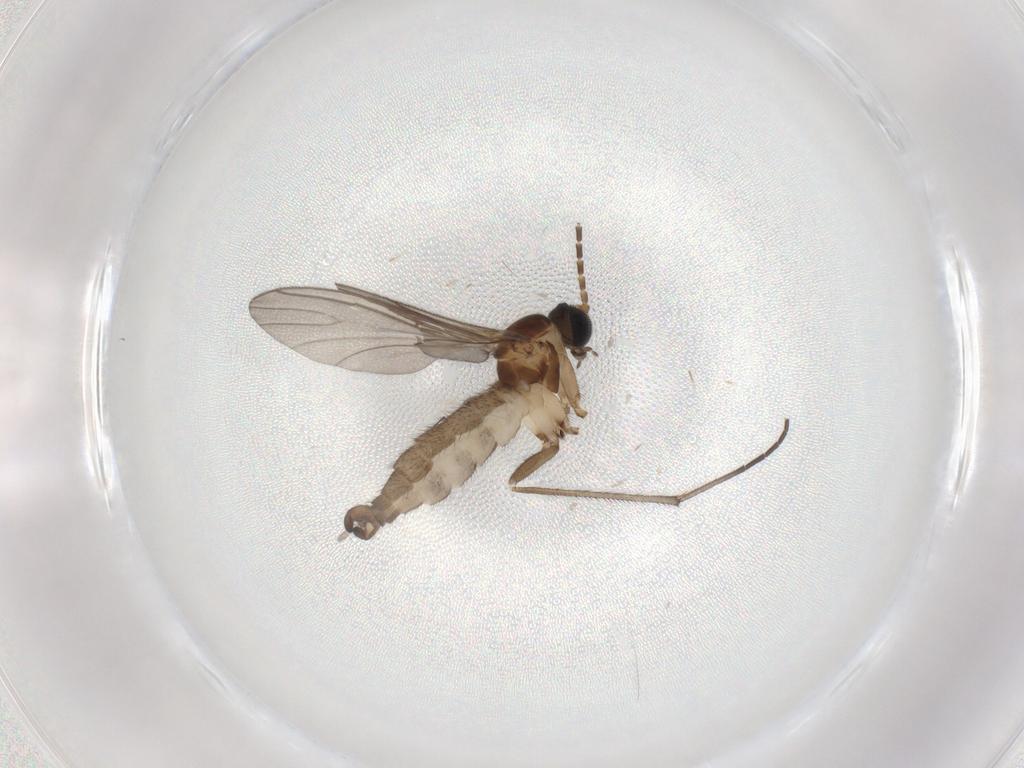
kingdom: Animalia
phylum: Arthropoda
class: Insecta
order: Diptera
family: Sciaridae
